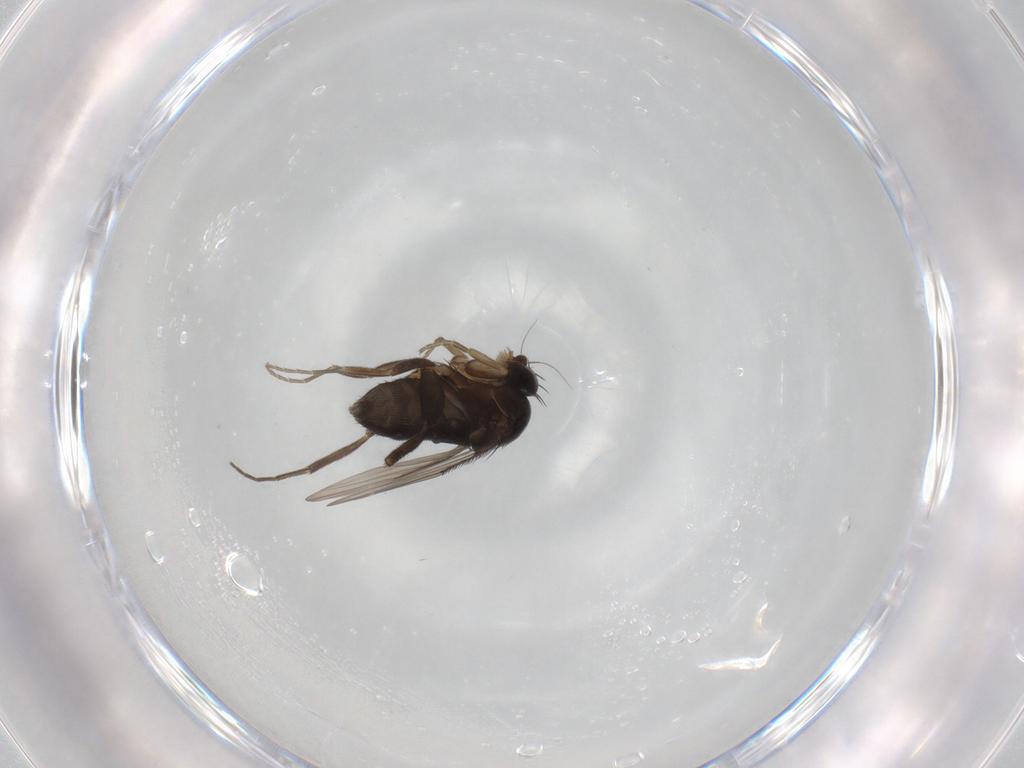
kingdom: Animalia
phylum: Arthropoda
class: Insecta
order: Diptera
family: Phoridae
